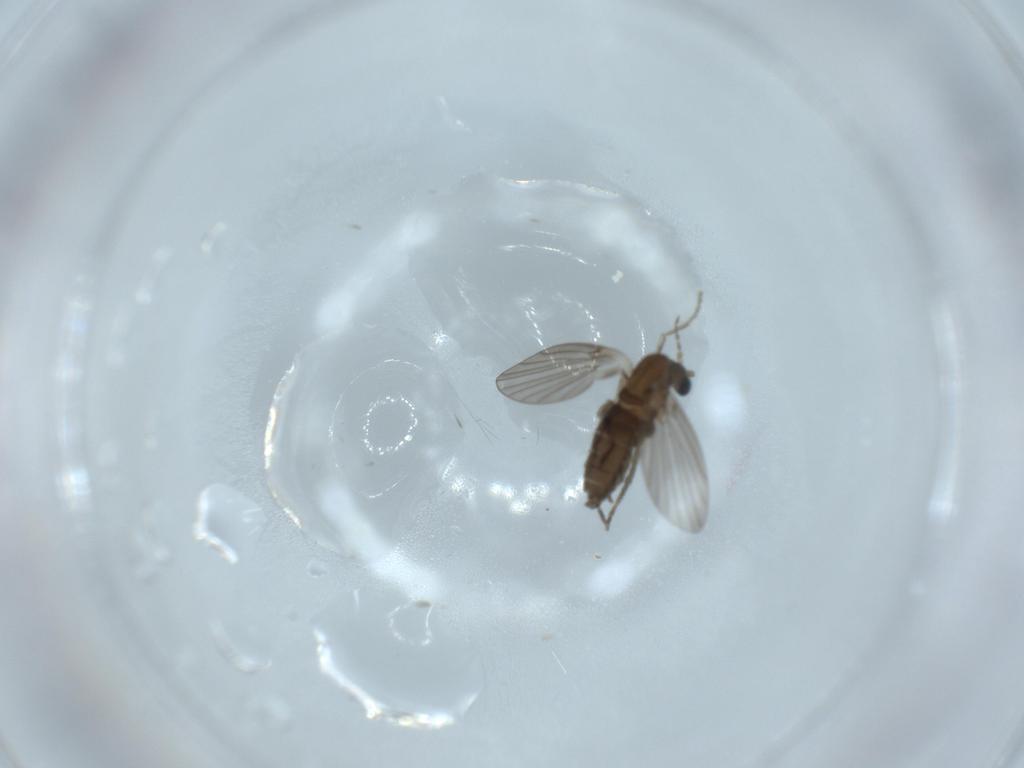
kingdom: Animalia
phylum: Arthropoda
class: Insecta
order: Diptera
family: Psychodidae
